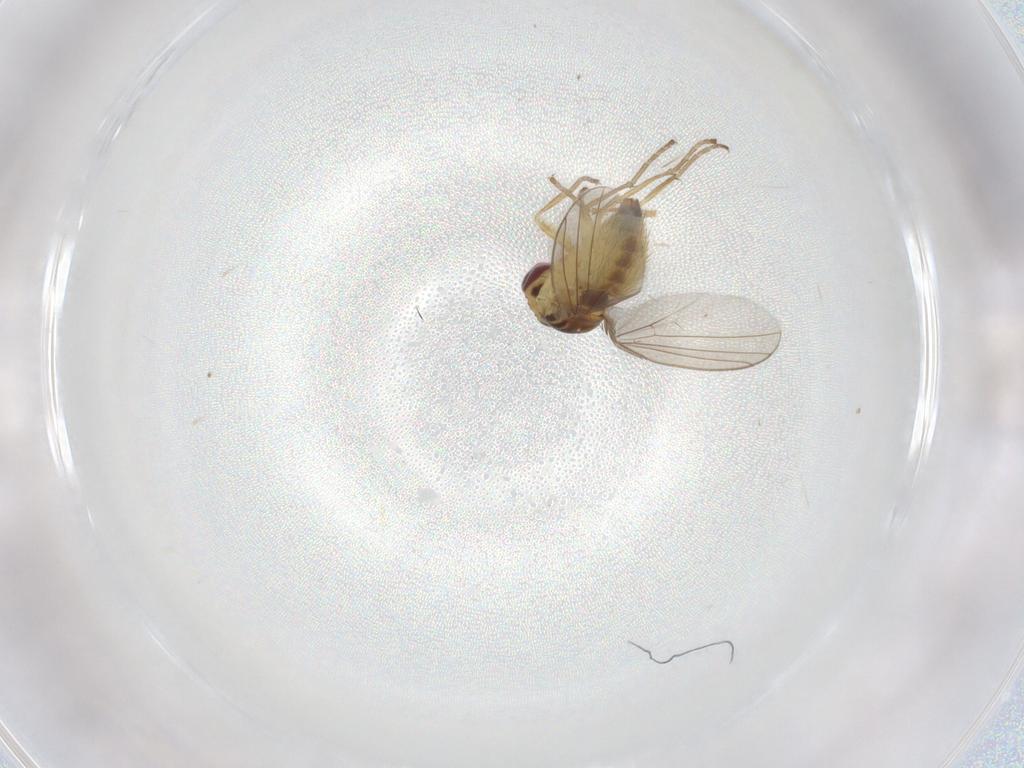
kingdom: Animalia
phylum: Arthropoda
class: Insecta
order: Diptera
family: Agromyzidae
